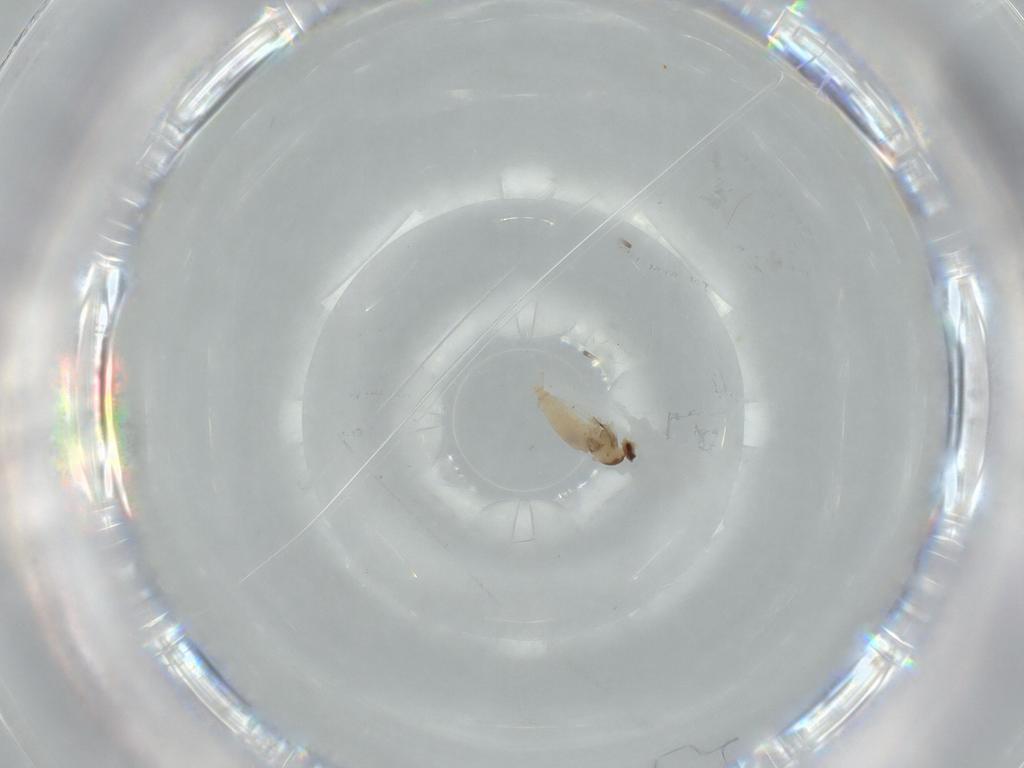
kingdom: Animalia
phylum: Arthropoda
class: Insecta
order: Diptera
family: Cecidomyiidae
